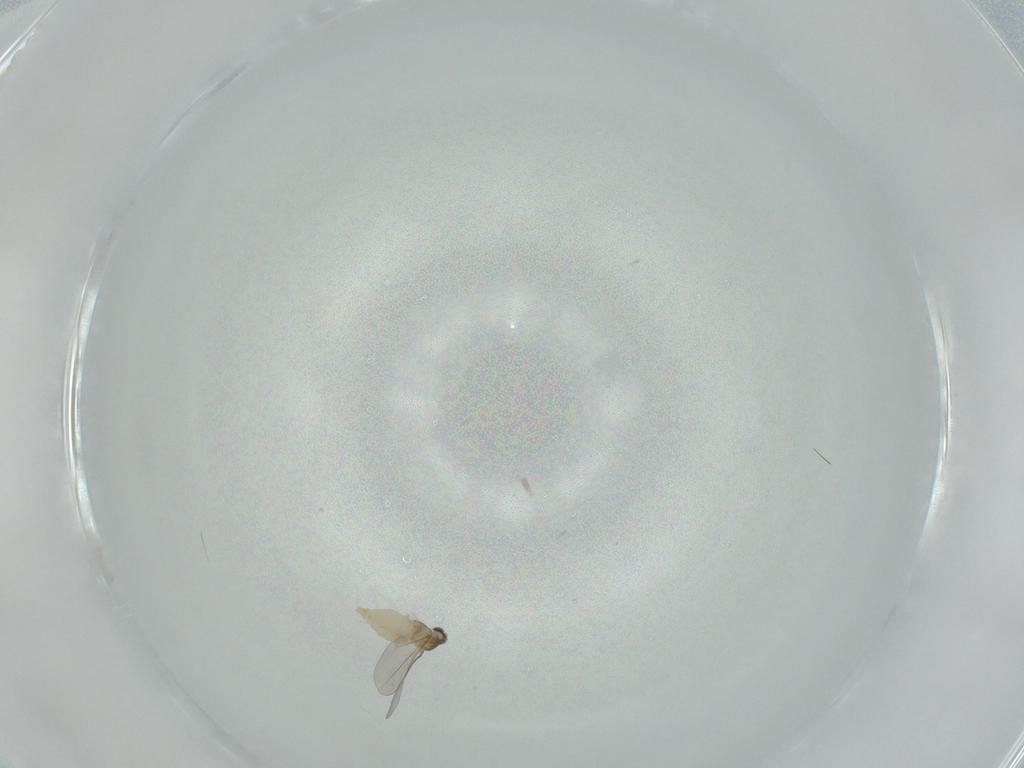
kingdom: Animalia
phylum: Arthropoda
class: Insecta
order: Diptera
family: Cecidomyiidae
